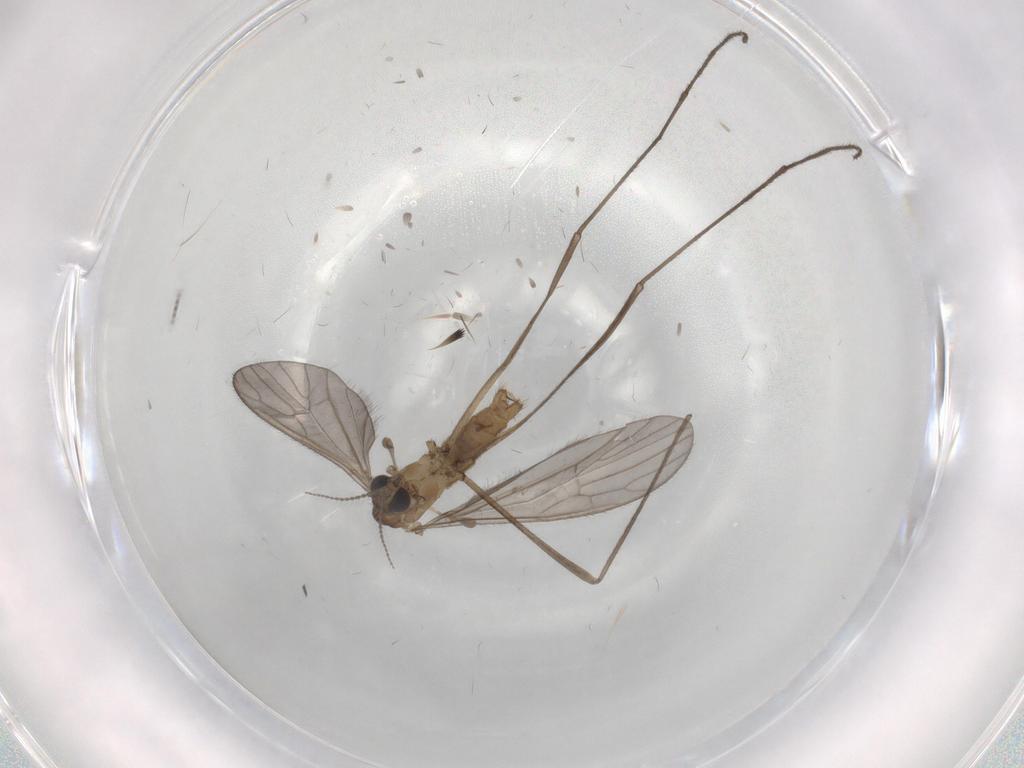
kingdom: Animalia
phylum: Arthropoda
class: Insecta
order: Diptera
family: Limoniidae
